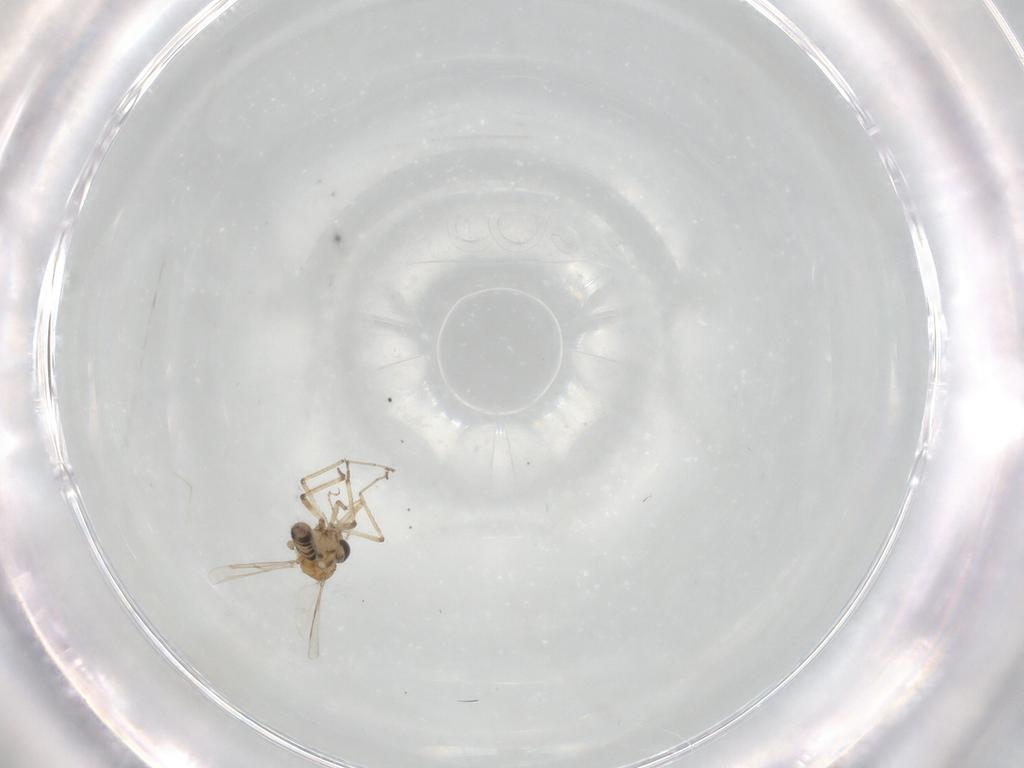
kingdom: Animalia
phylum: Arthropoda
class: Insecta
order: Diptera
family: Ceratopogonidae
